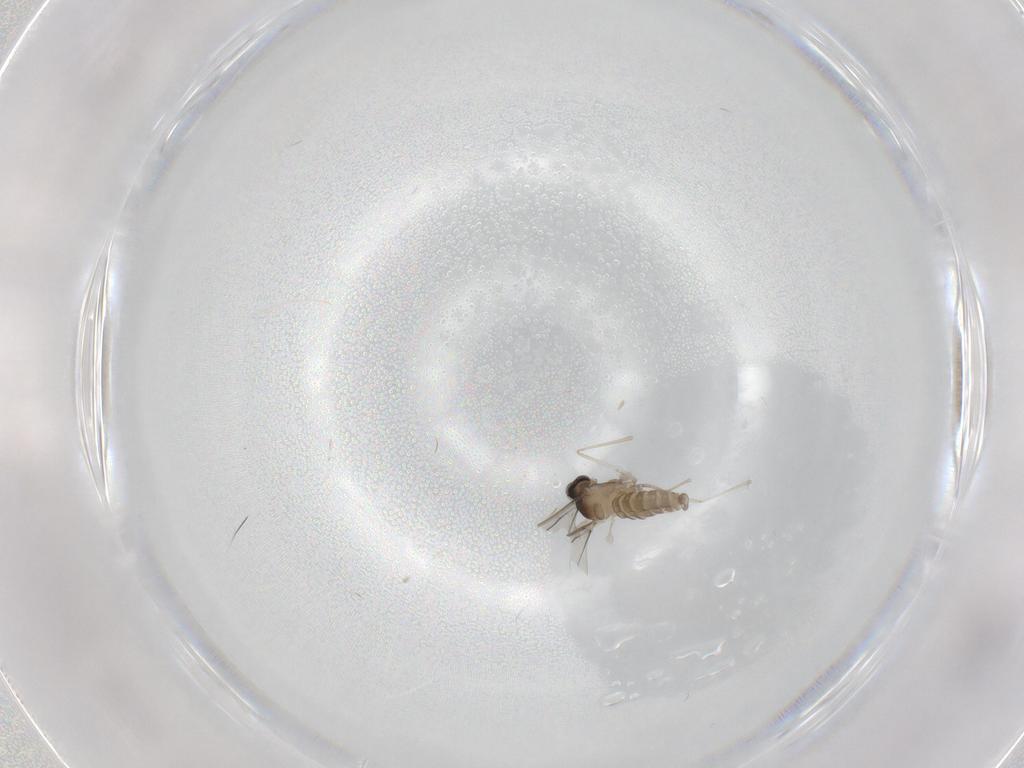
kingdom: Animalia
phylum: Arthropoda
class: Insecta
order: Diptera
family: Cecidomyiidae
